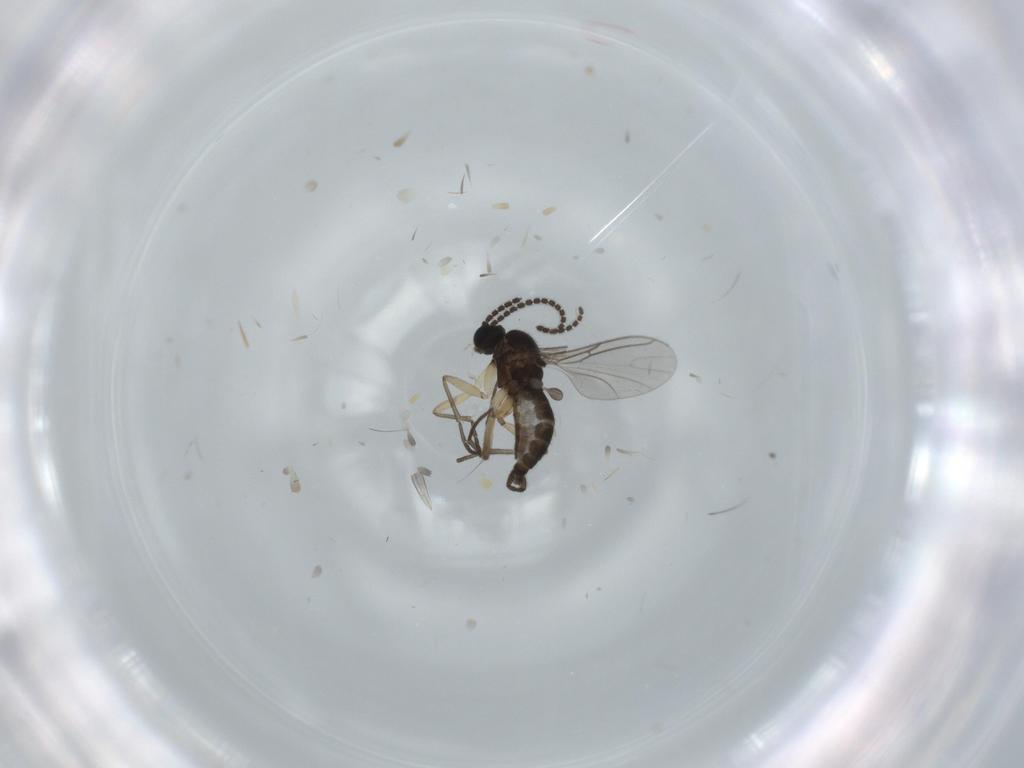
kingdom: Animalia
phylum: Arthropoda
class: Insecta
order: Diptera
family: Sciaridae
